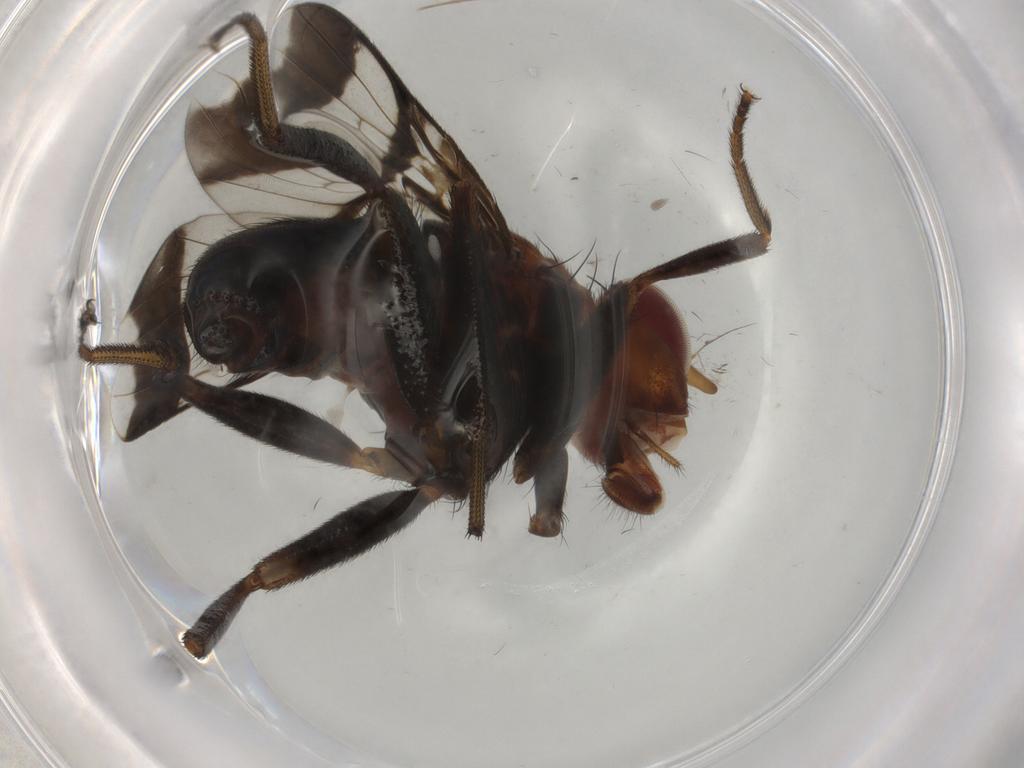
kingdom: Animalia
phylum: Arthropoda
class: Insecta
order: Diptera
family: Richardiidae
